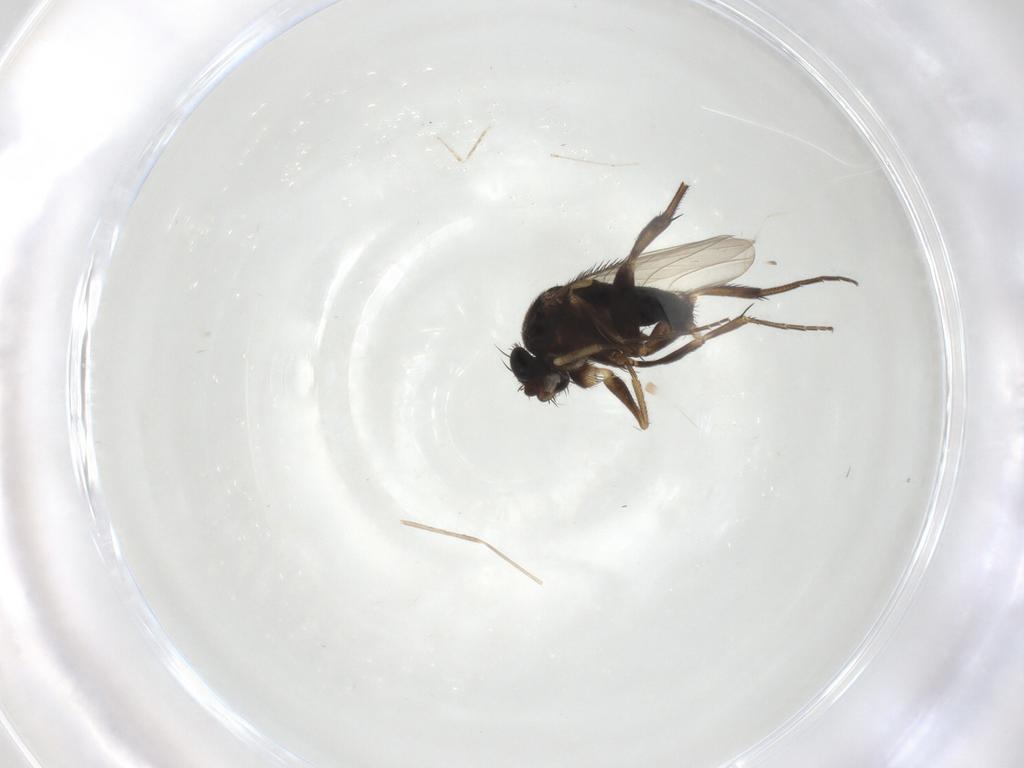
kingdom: Animalia
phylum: Arthropoda
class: Insecta
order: Diptera
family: Phoridae
